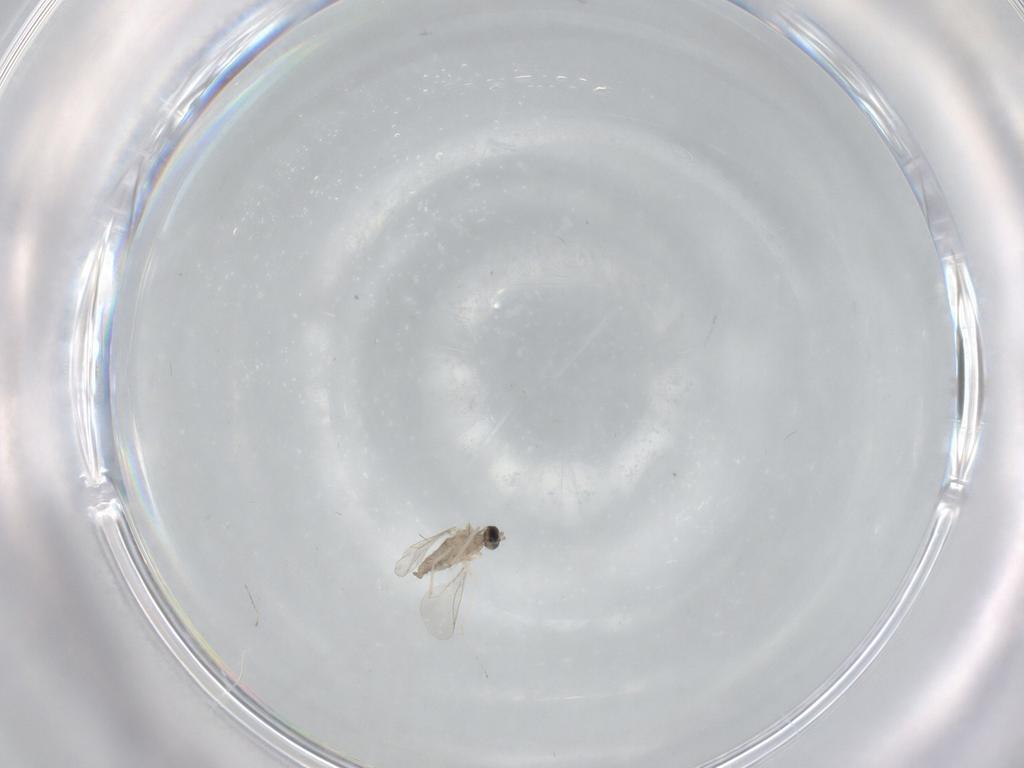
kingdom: Animalia
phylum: Arthropoda
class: Insecta
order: Diptera
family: Cecidomyiidae
